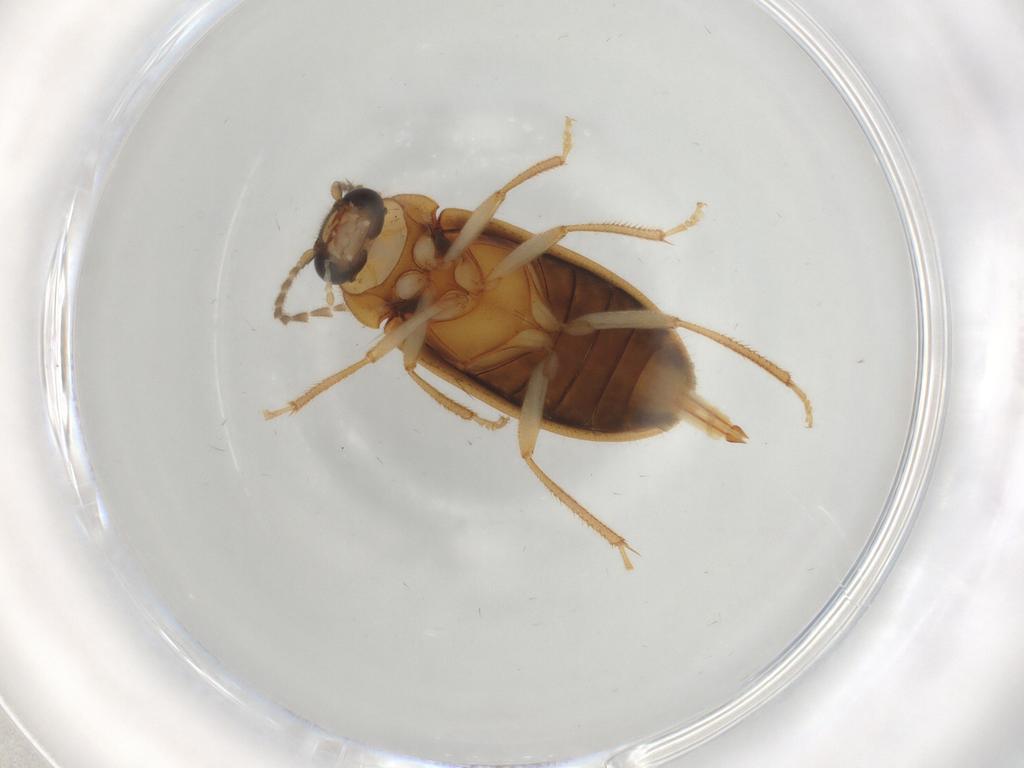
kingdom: Animalia
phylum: Arthropoda
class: Insecta
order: Coleoptera
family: Ptilodactylidae
